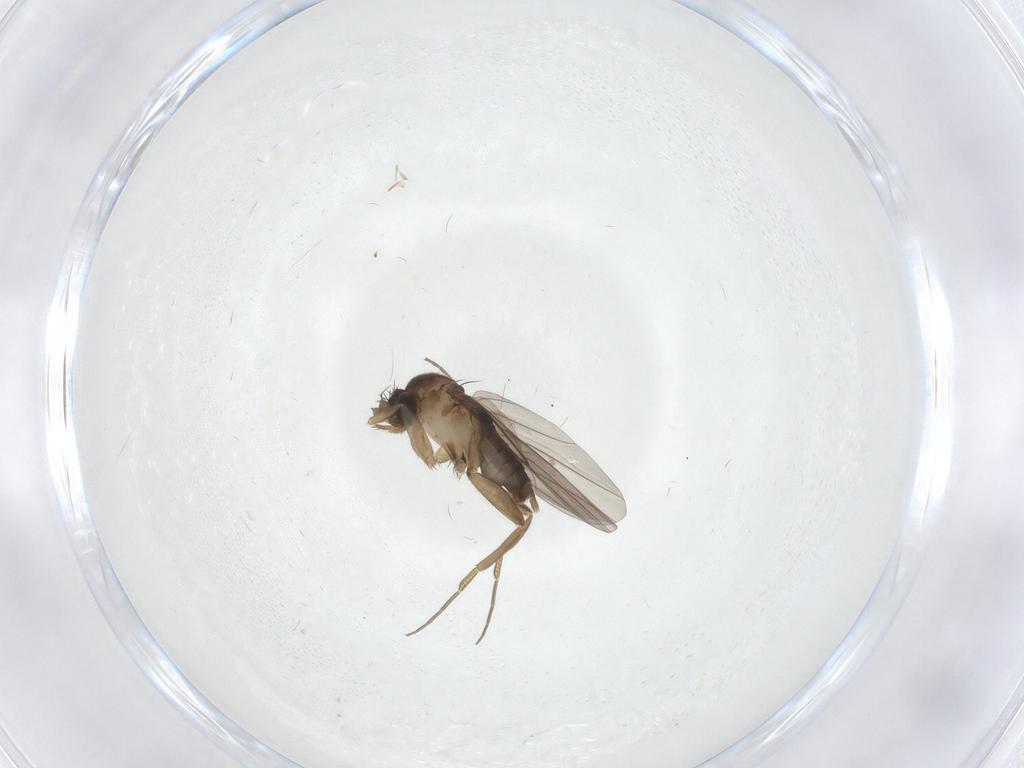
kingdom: Animalia
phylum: Arthropoda
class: Insecta
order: Diptera
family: Phoridae
